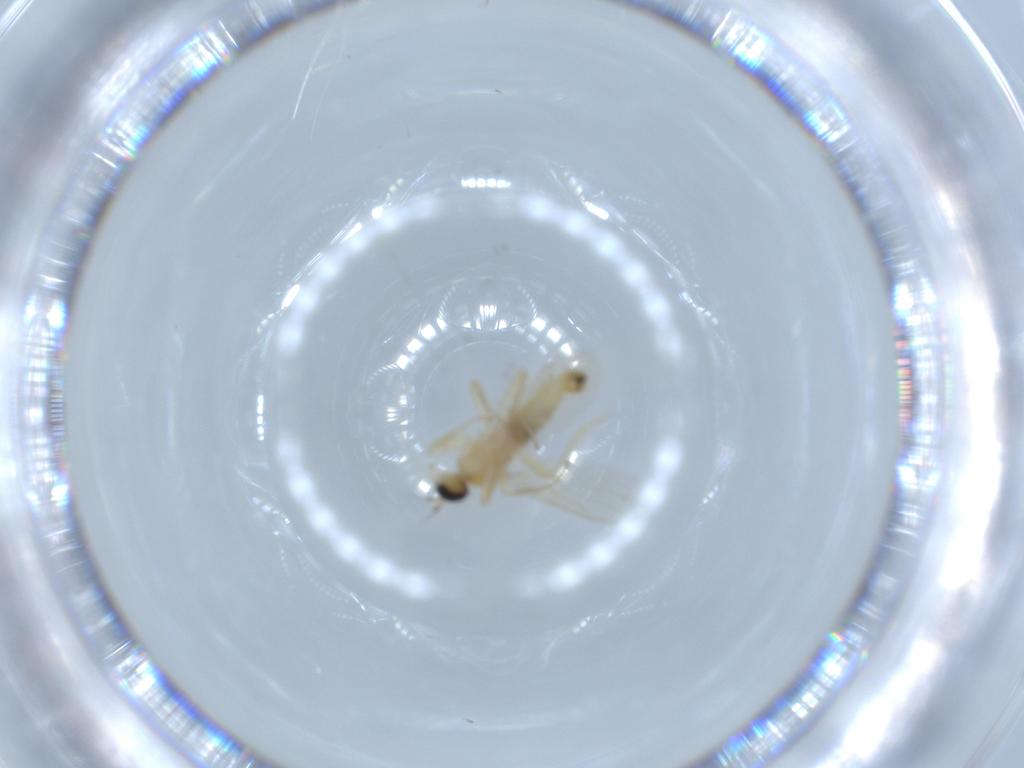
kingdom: Animalia
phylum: Arthropoda
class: Insecta
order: Diptera
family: Hybotidae
